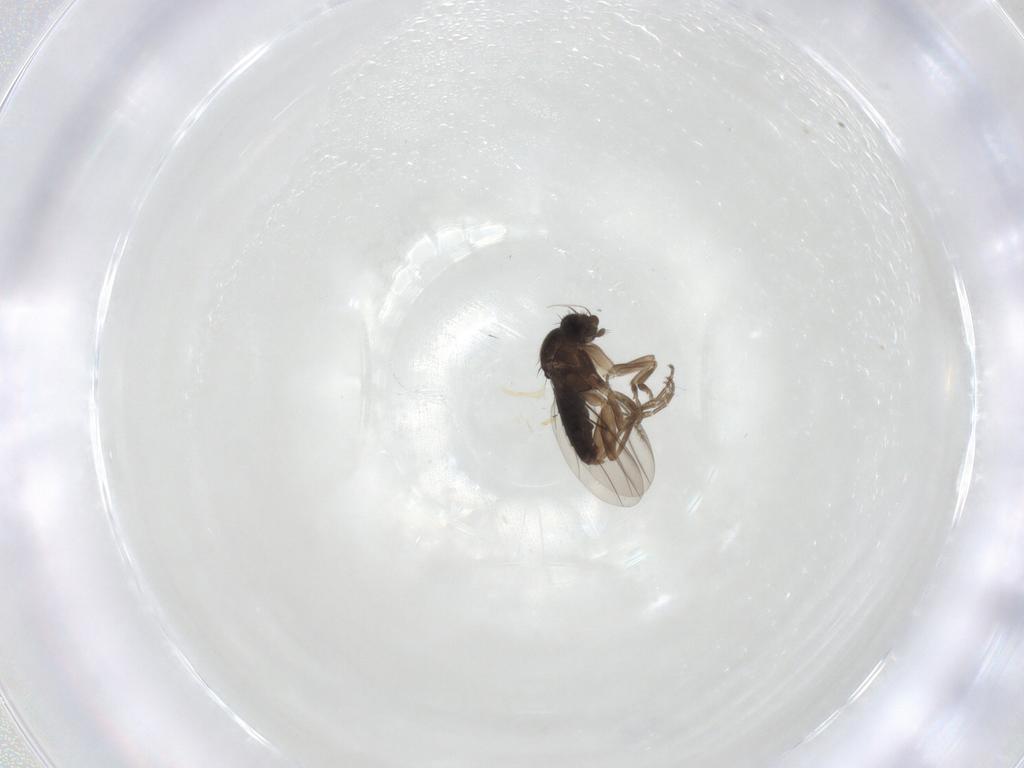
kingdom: Animalia
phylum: Arthropoda
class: Insecta
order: Diptera
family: Phoridae
